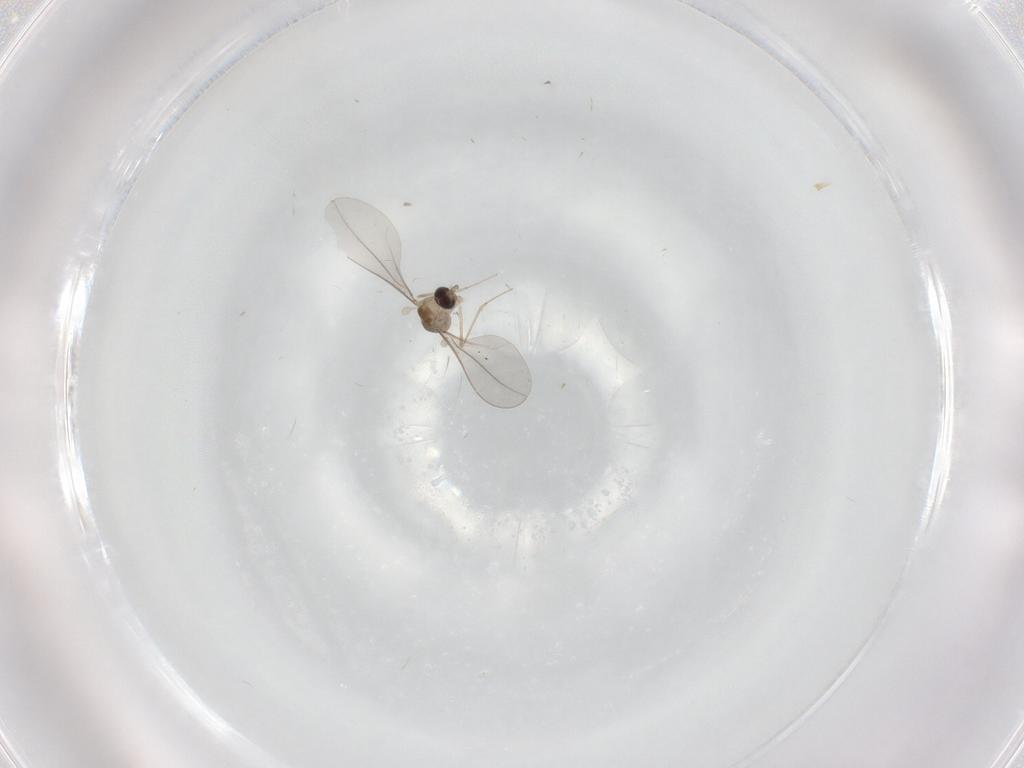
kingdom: Animalia
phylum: Arthropoda
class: Insecta
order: Diptera
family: Cecidomyiidae
